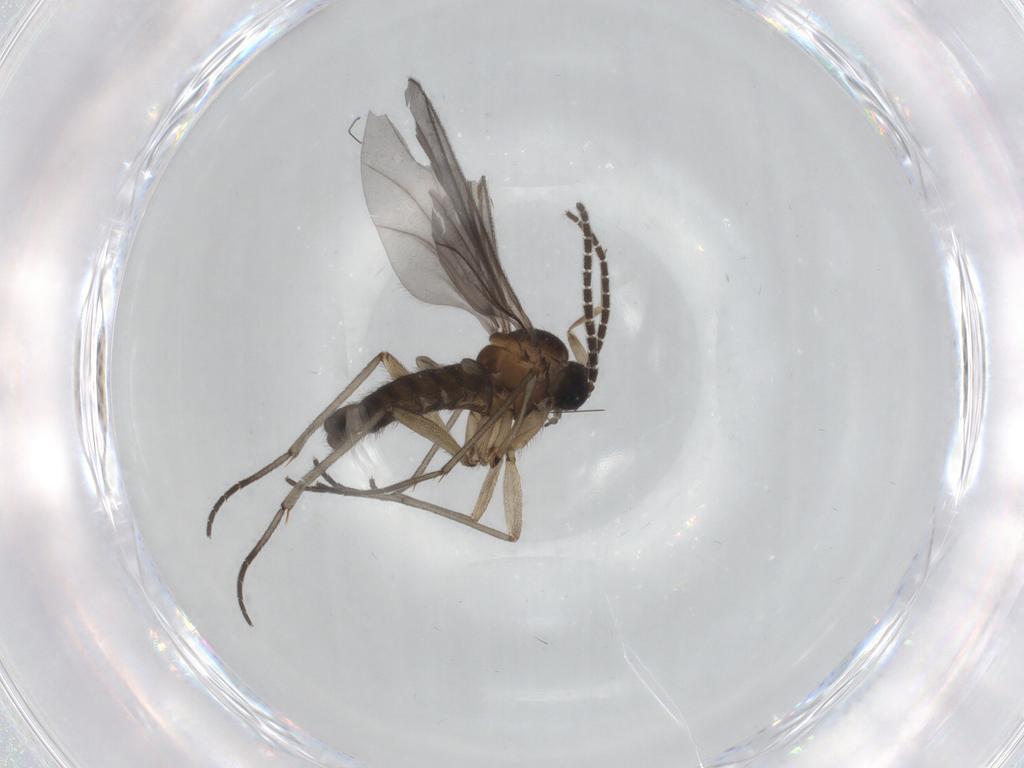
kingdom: Animalia
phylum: Arthropoda
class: Insecta
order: Diptera
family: Sciaridae
